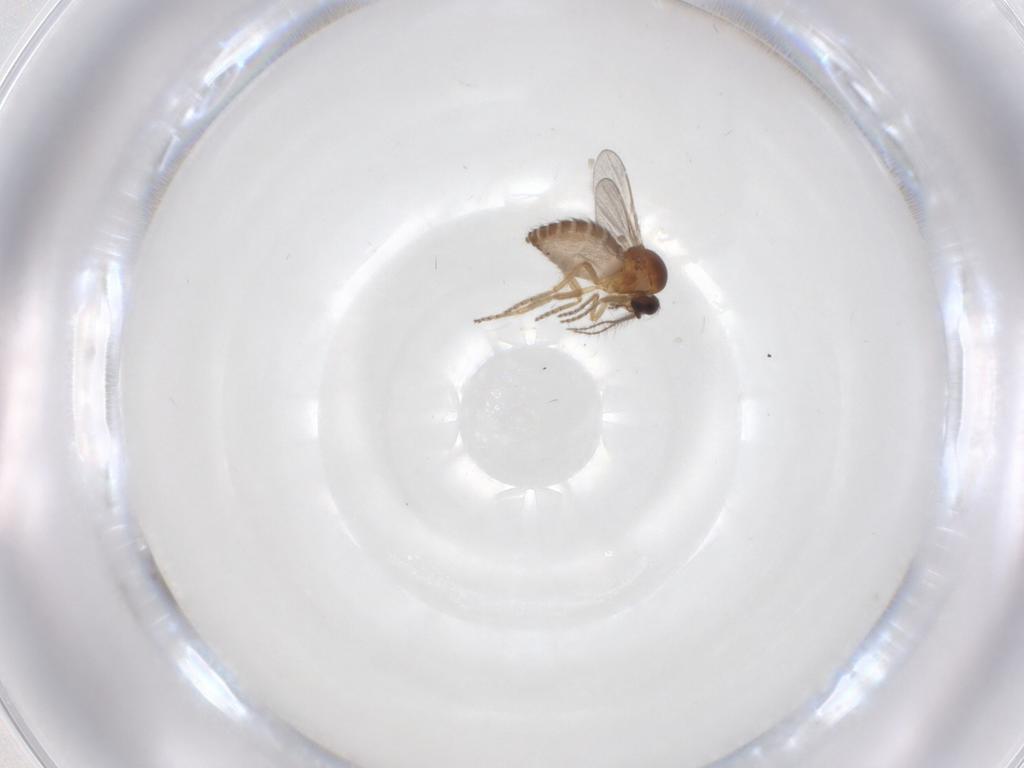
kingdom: Animalia
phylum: Arthropoda
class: Insecta
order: Diptera
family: Ceratopogonidae
